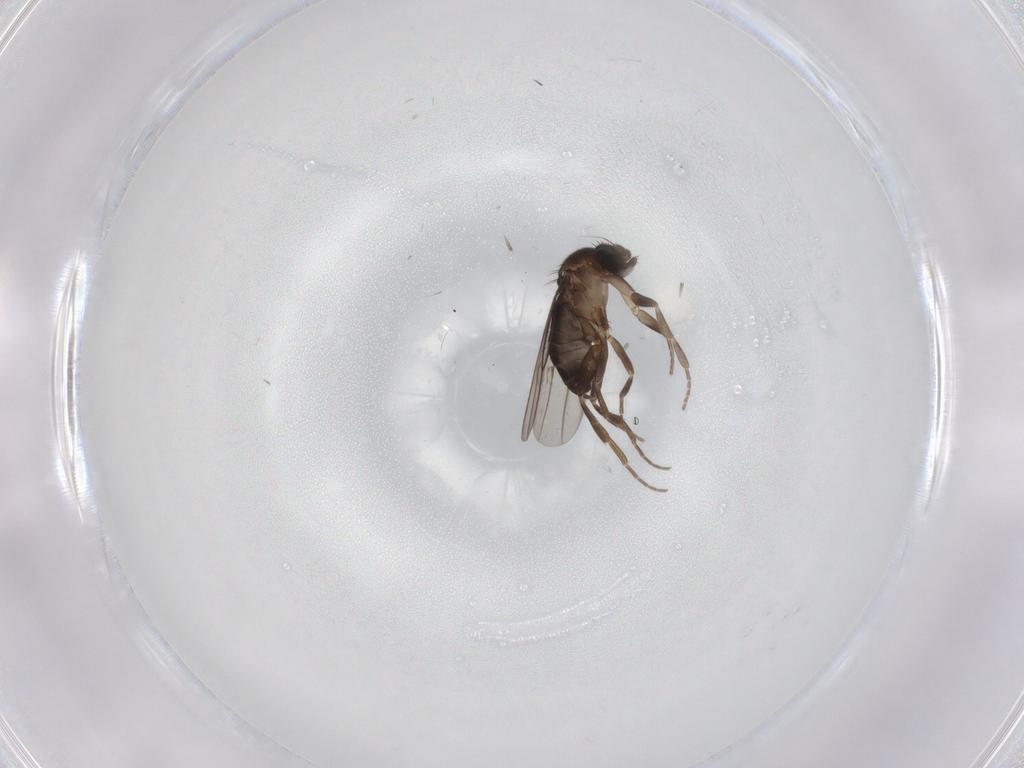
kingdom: Animalia
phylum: Arthropoda
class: Insecta
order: Diptera
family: Phoridae
